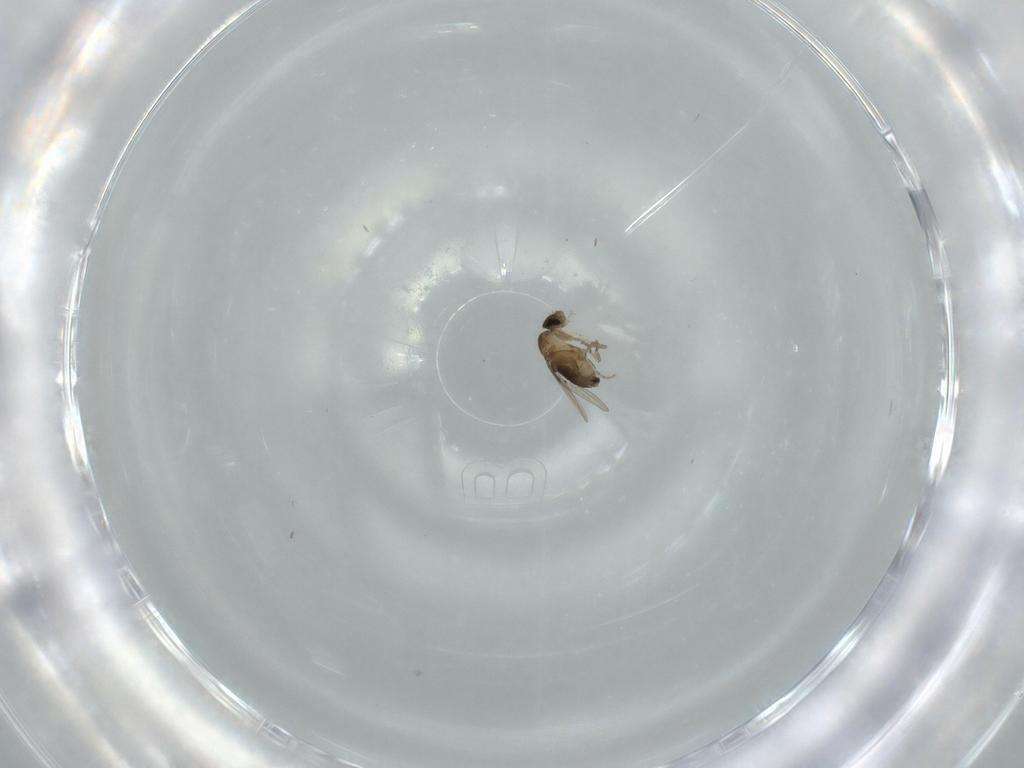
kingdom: Animalia
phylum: Arthropoda
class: Insecta
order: Diptera
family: Phoridae
